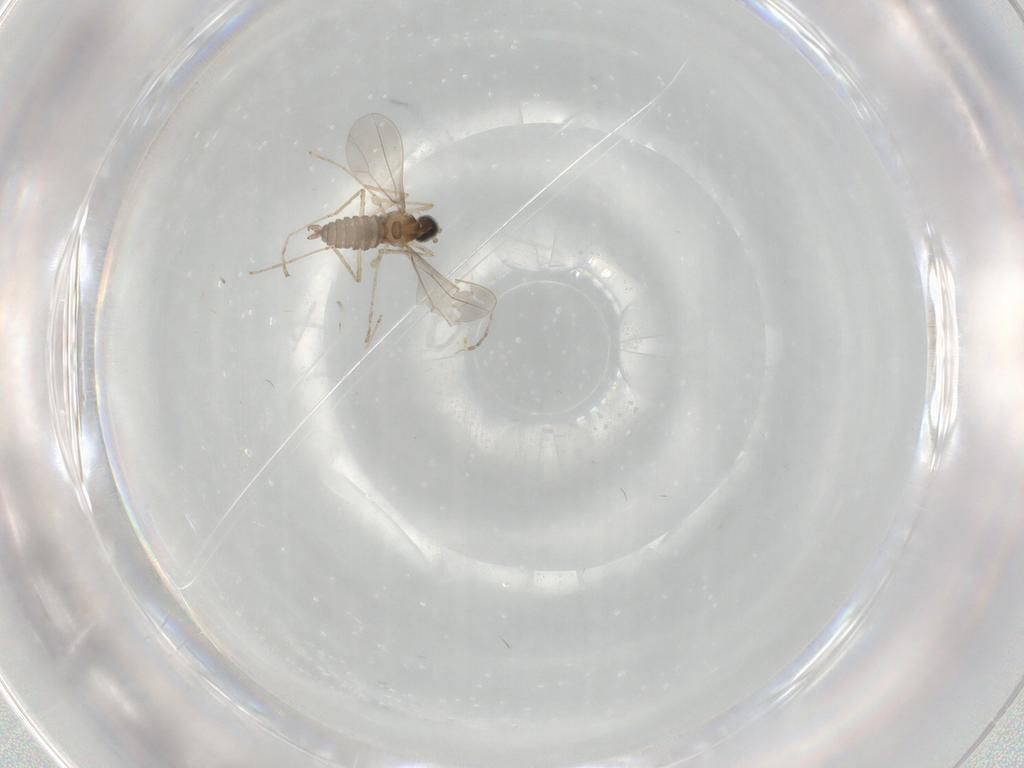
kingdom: Animalia
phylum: Arthropoda
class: Insecta
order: Diptera
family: Cecidomyiidae
